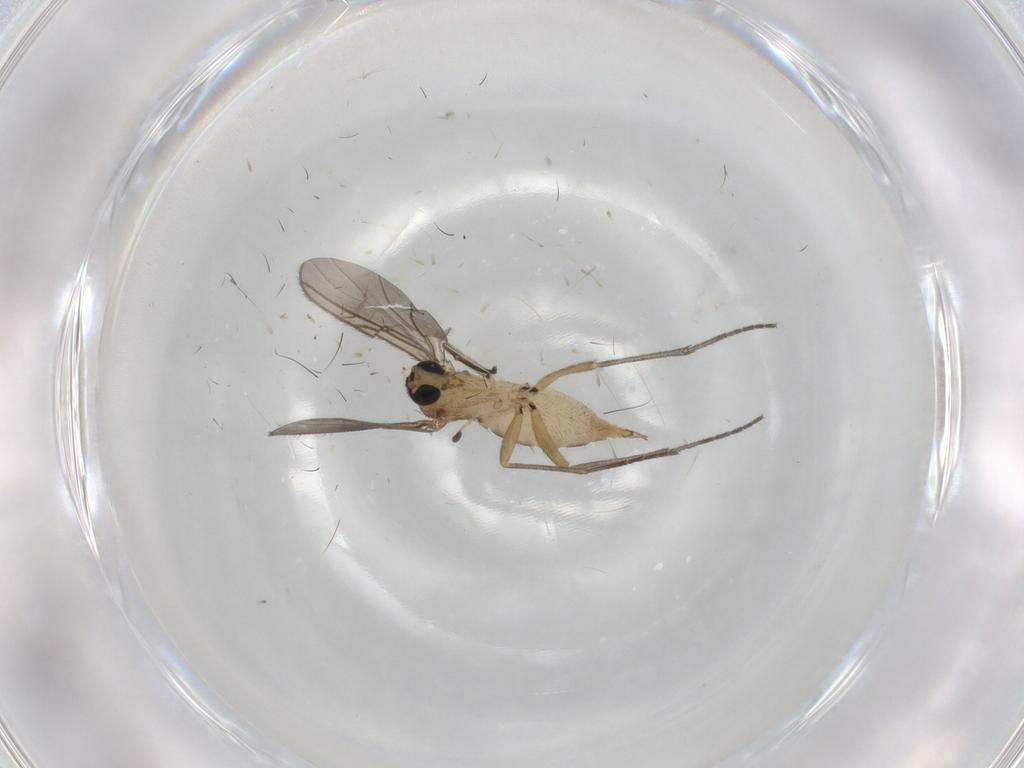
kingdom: Animalia
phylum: Arthropoda
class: Insecta
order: Diptera
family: Sciaridae
